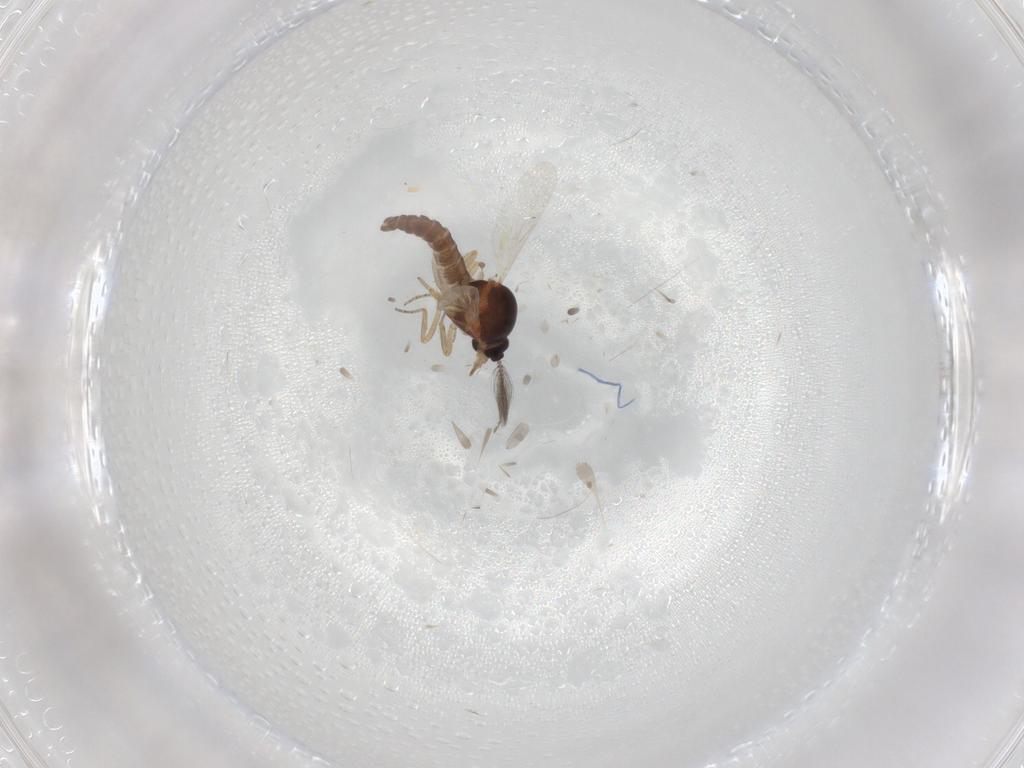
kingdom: Animalia
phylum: Arthropoda
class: Insecta
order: Diptera
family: Ceratopogonidae
